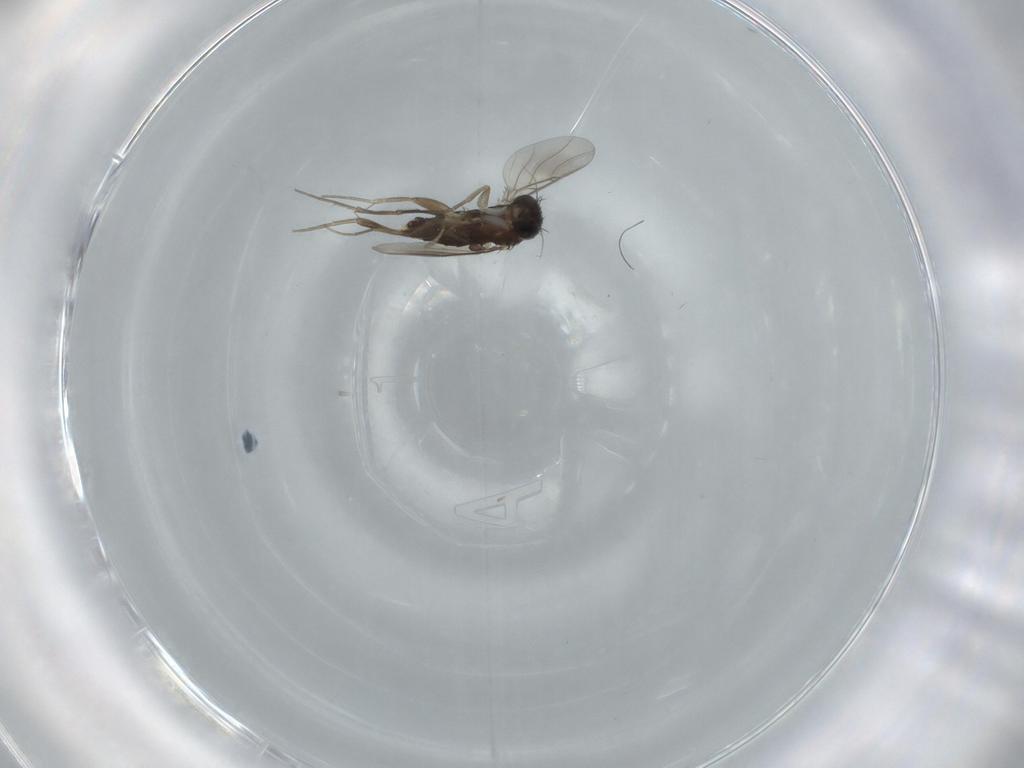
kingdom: Animalia
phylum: Arthropoda
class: Insecta
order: Diptera
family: Phoridae
